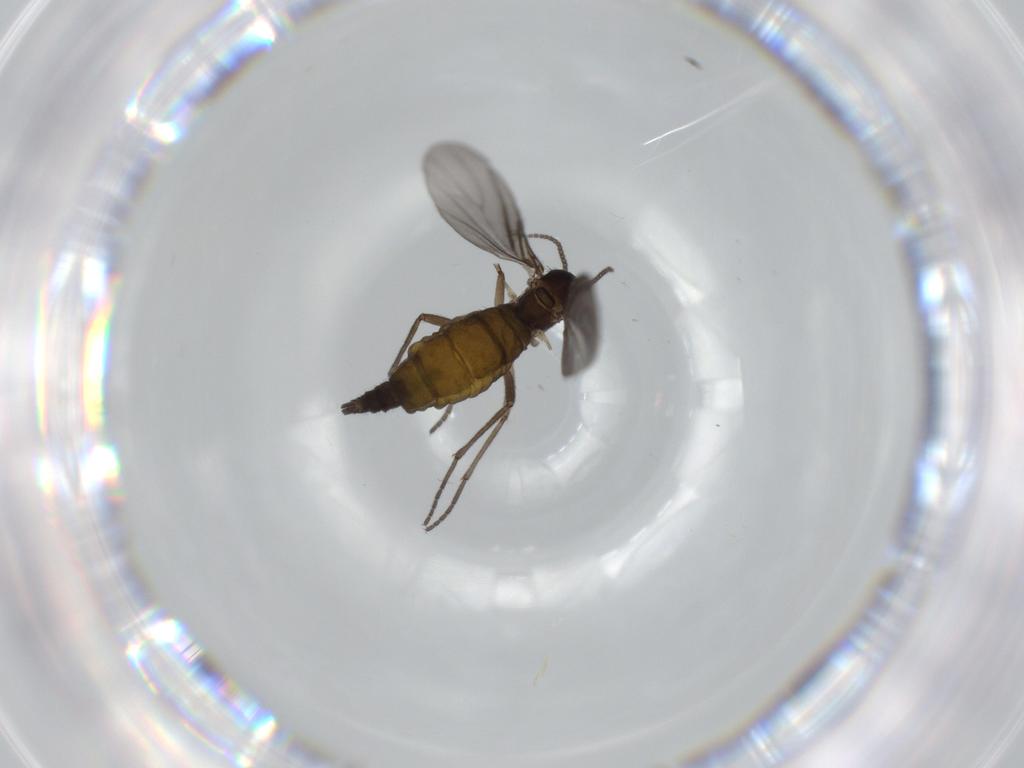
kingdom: Animalia
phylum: Arthropoda
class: Insecta
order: Diptera
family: Sciaridae
